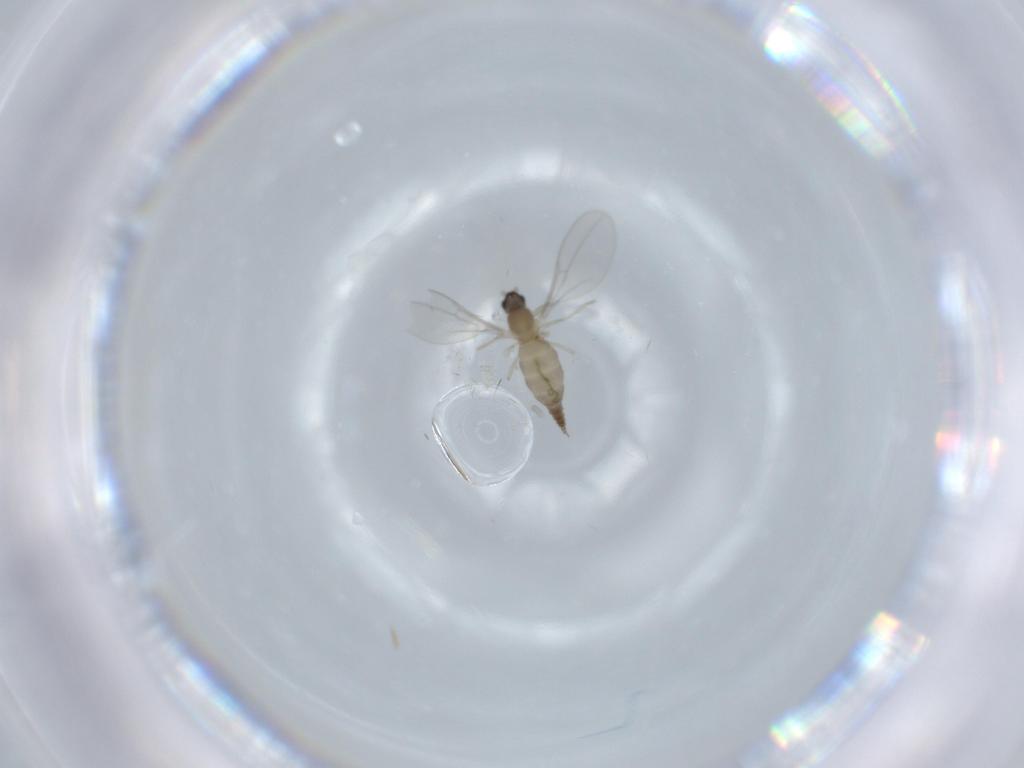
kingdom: Animalia
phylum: Arthropoda
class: Insecta
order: Diptera
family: Cecidomyiidae
